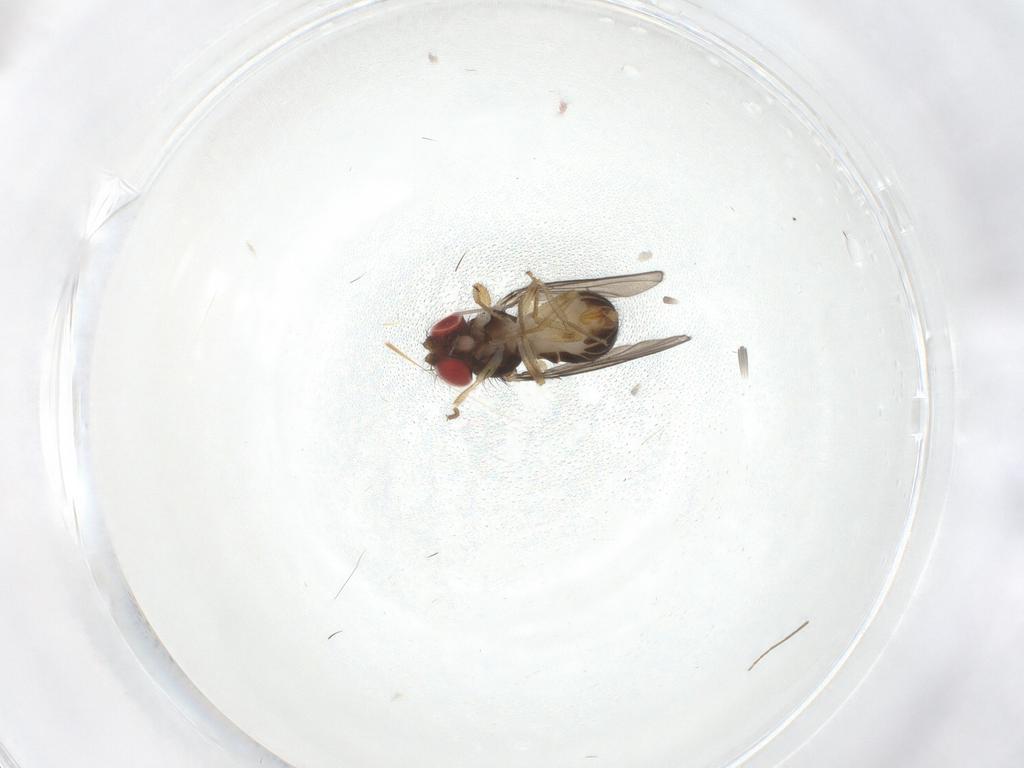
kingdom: Animalia
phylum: Arthropoda
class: Insecta
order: Diptera
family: Drosophilidae
